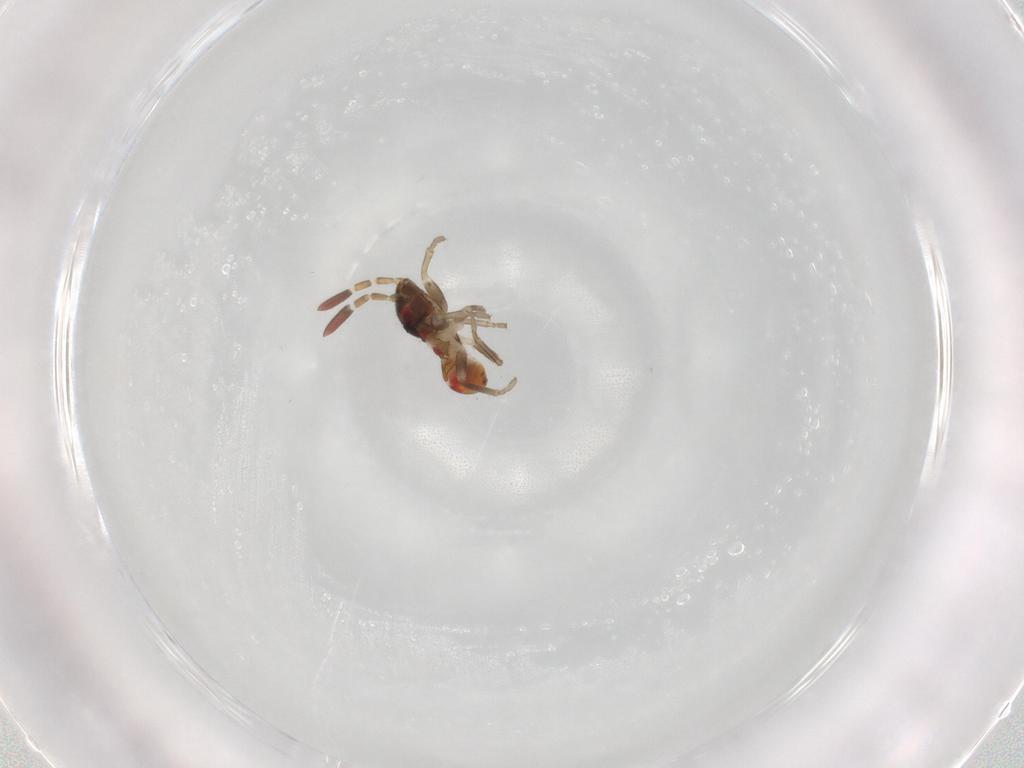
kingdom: Animalia
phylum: Arthropoda
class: Insecta
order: Hemiptera
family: Rhyparochromidae
